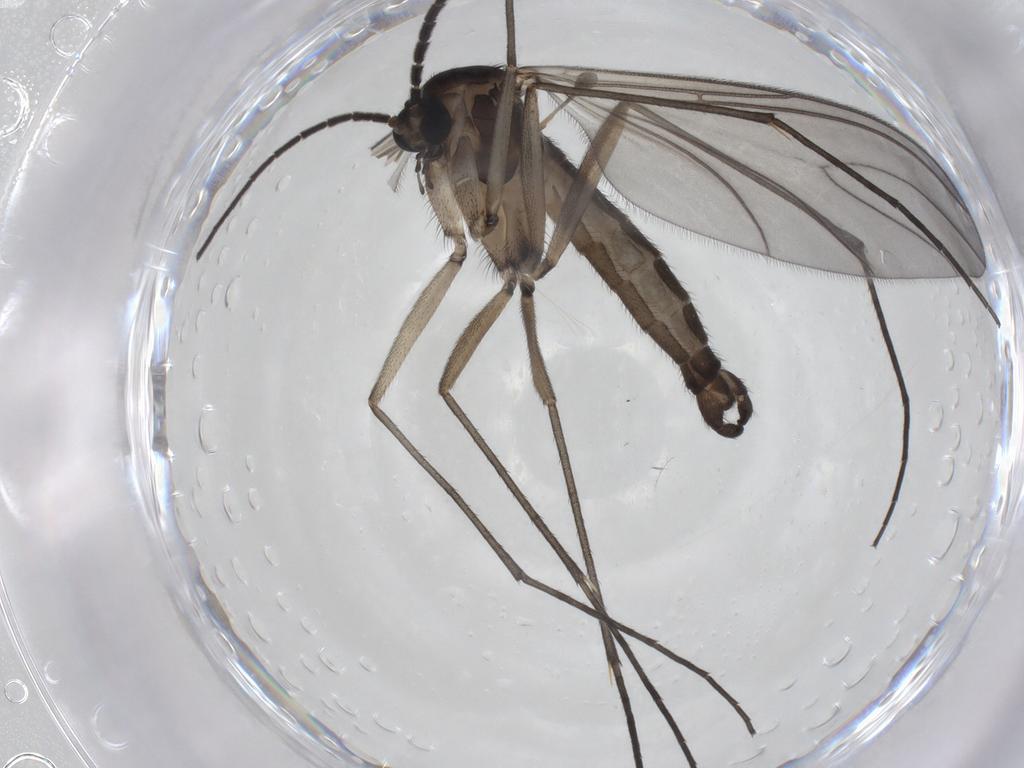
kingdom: Animalia
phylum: Arthropoda
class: Insecta
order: Diptera
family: Sciaridae
